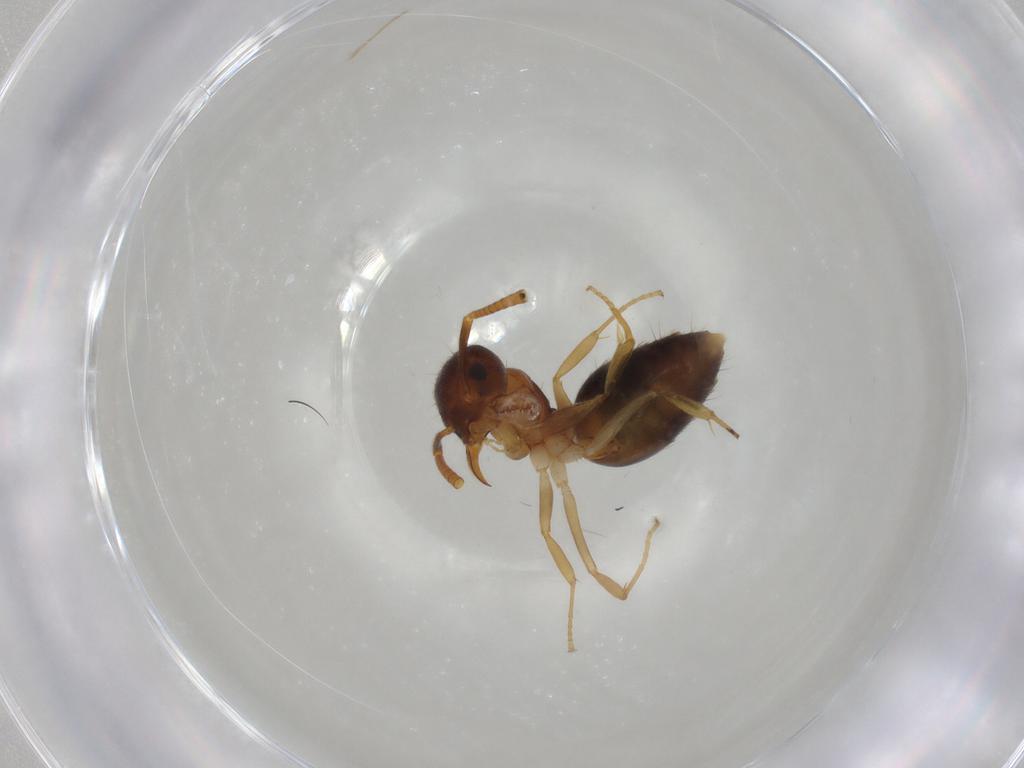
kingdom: Animalia
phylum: Arthropoda
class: Insecta
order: Hymenoptera
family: Formicidae
